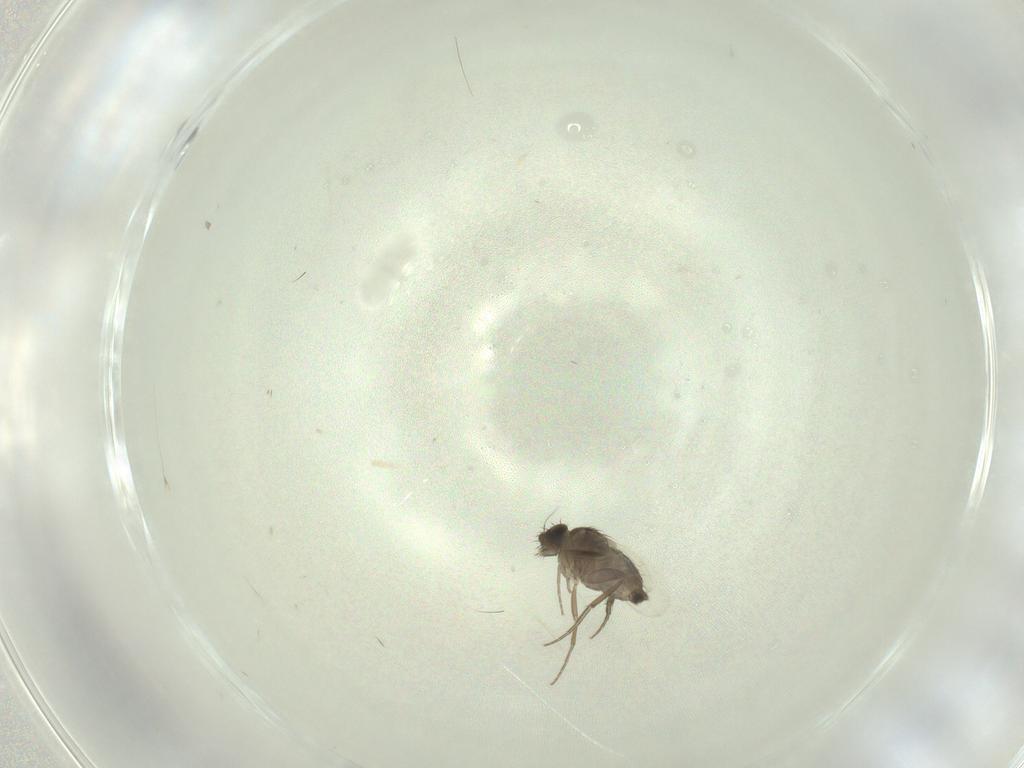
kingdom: Animalia
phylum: Arthropoda
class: Insecta
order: Diptera
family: Phoridae
